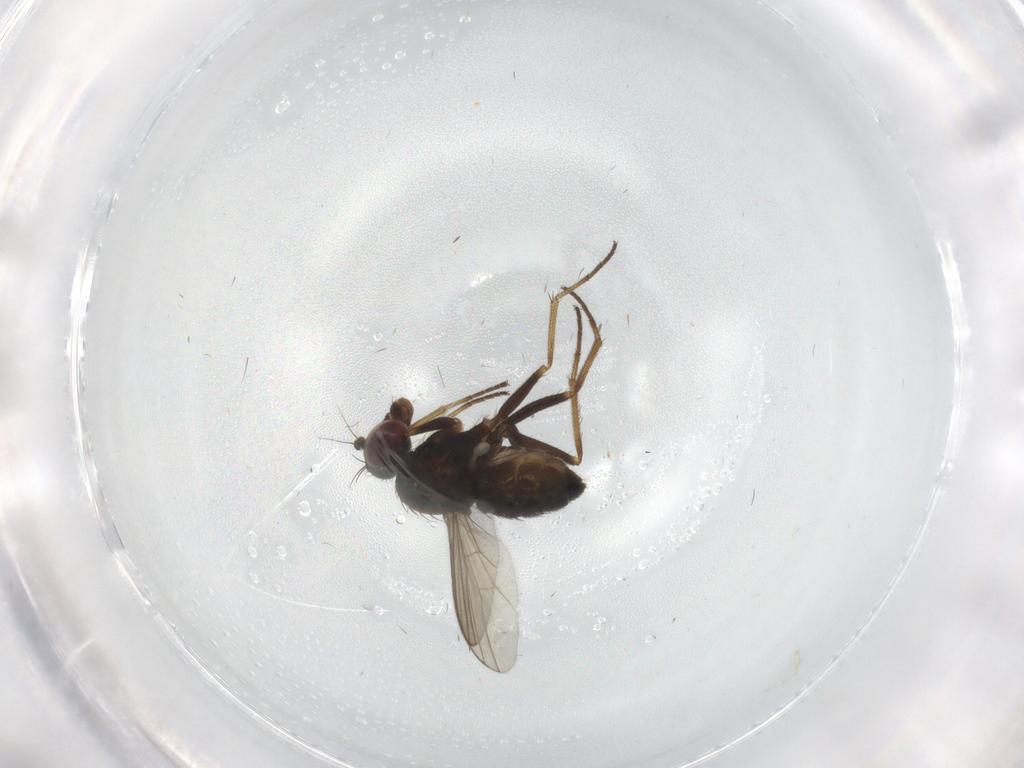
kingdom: Animalia
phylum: Arthropoda
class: Insecta
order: Diptera
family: Dolichopodidae
